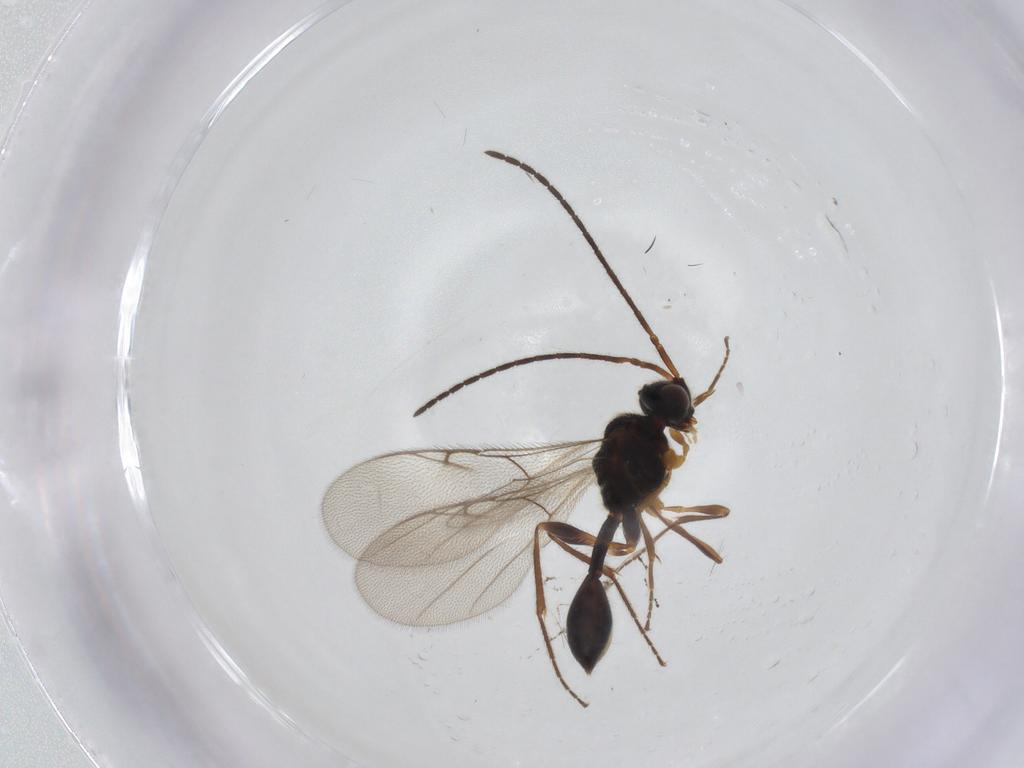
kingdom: Animalia
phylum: Arthropoda
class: Insecta
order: Hymenoptera
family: Diapriidae
